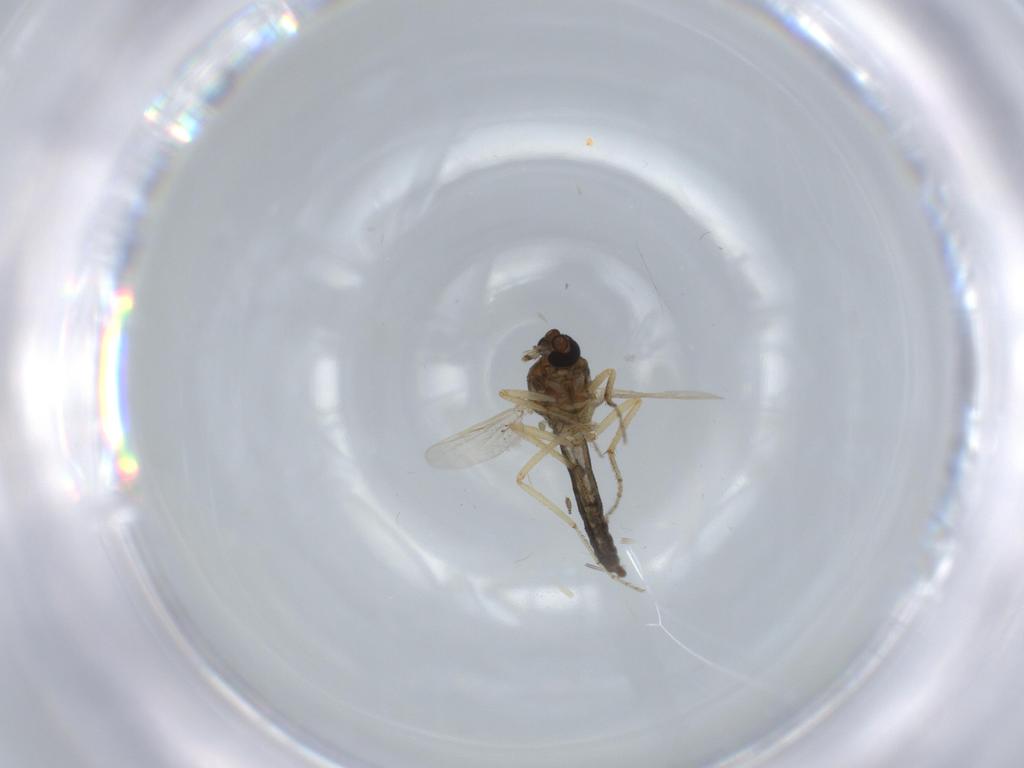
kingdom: Animalia
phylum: Arthropoda
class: Insecta
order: Diptera
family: Ceratopogonidae
